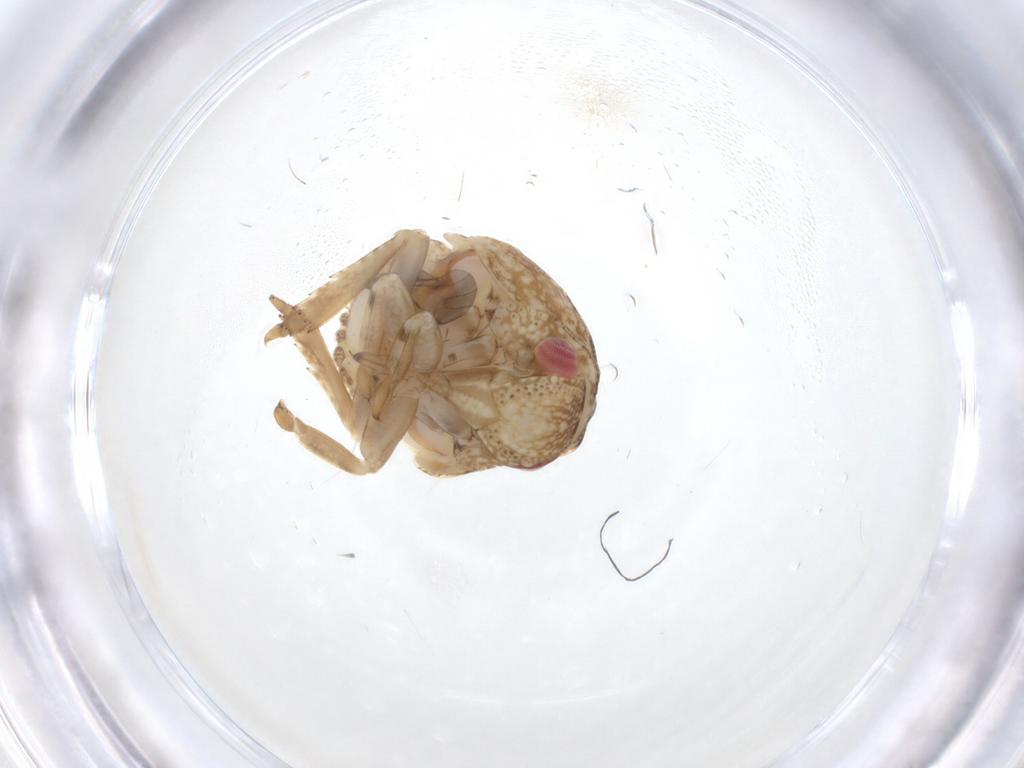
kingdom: Animalia
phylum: Arthropoda
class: Insecta
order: Hemiptera
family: Acanaloniidae
